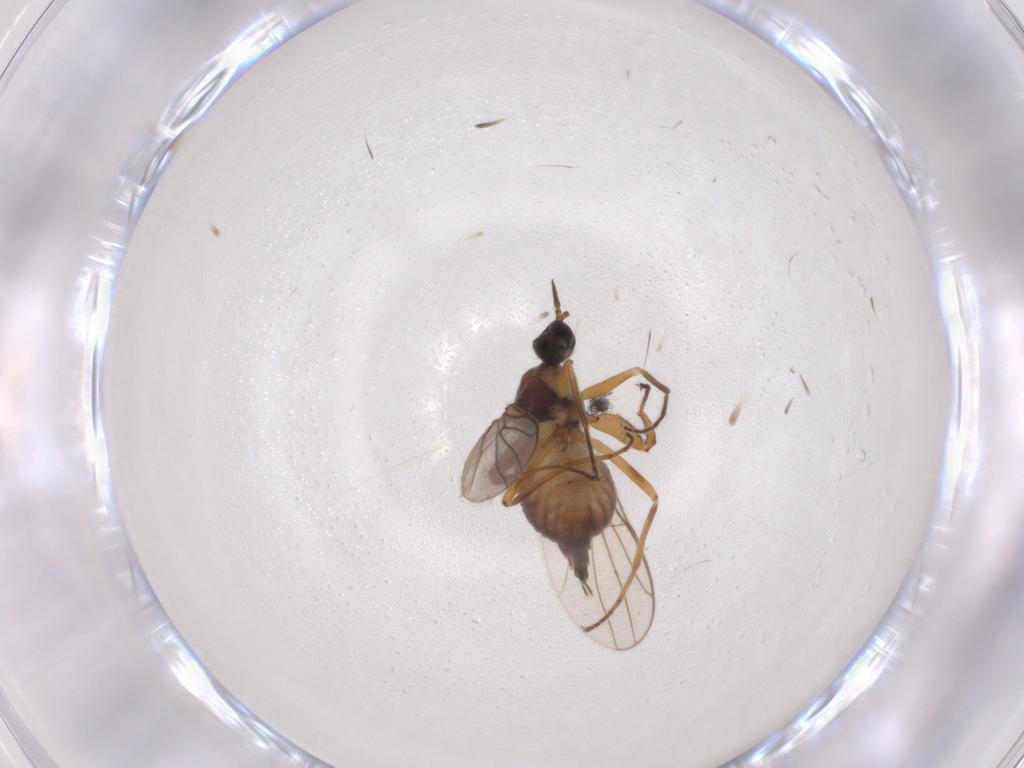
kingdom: Animalia
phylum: Arthropoda
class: Insecta
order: Diptera
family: Hybotidae
